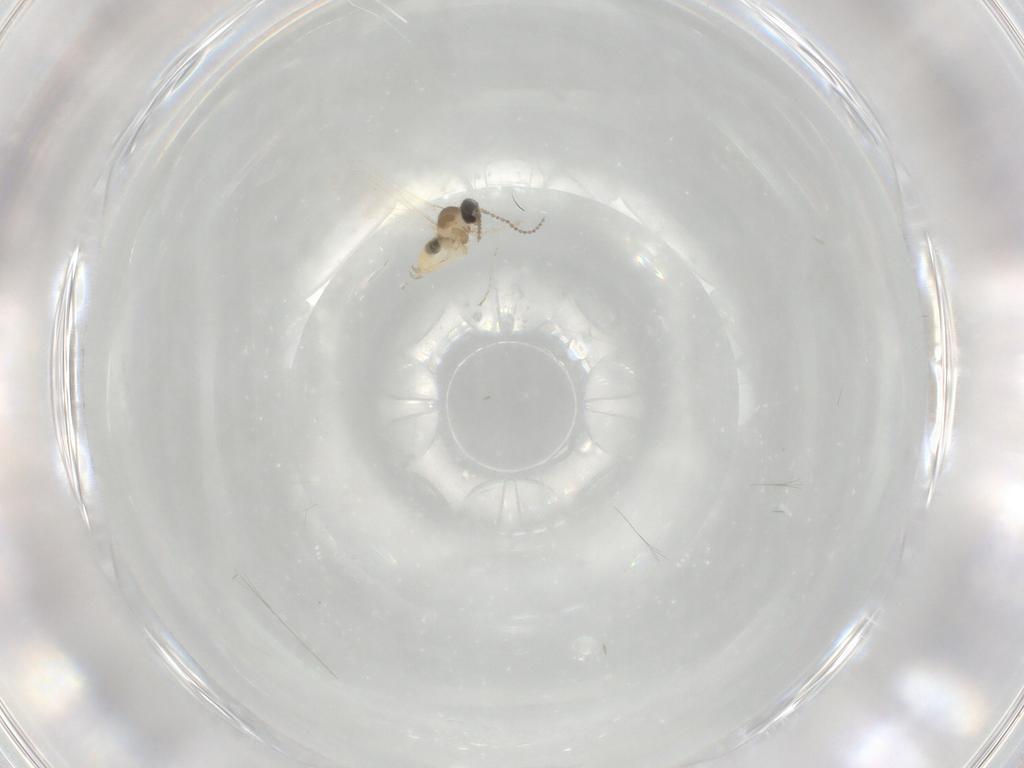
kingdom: Animalia
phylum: Arthropoda
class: Insecta
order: Diptera
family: Cecidomyiidae
